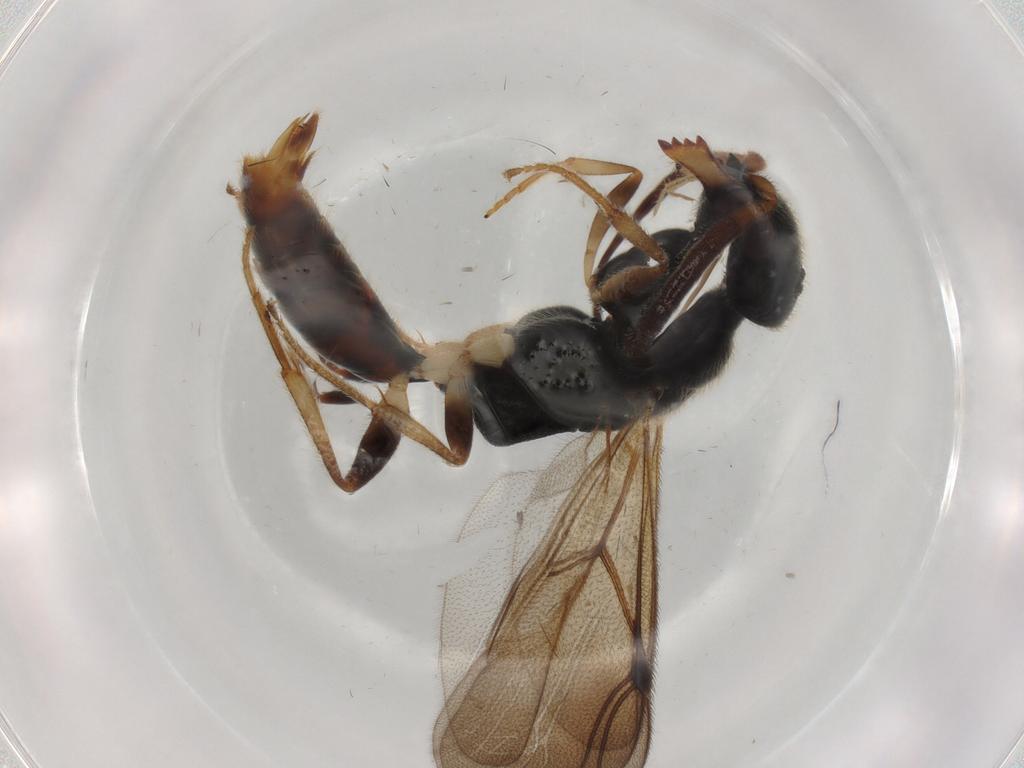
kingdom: Animalia
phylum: Arthropoda
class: Insecta
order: Hymenoptera
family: Bethylidae
